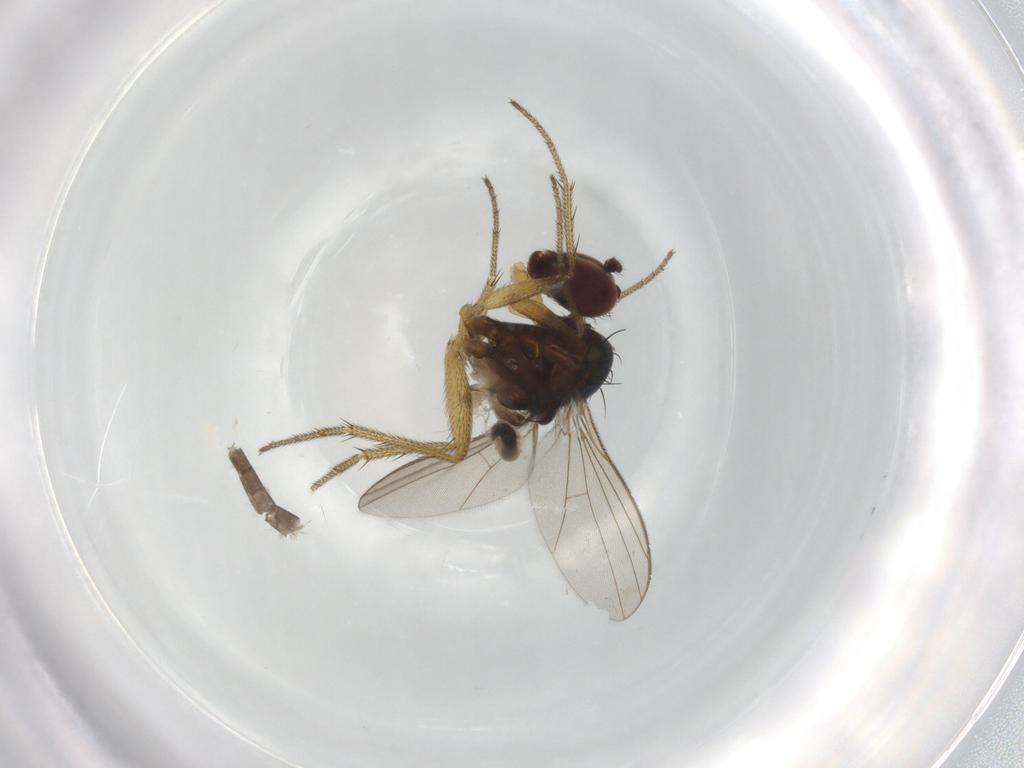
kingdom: Animalia
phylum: Arthropoda
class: Insecta
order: Diptera
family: Chironomidae
